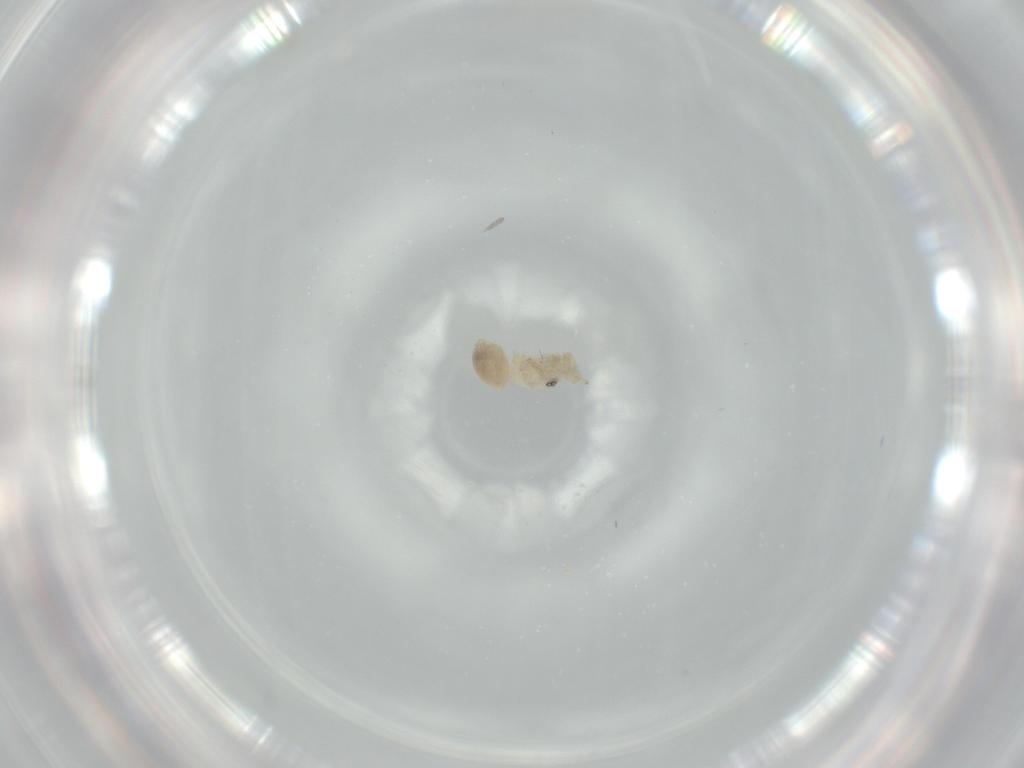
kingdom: Animalia
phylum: Arthropoda
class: Arachnida
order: Araneae
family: Oonopidae
